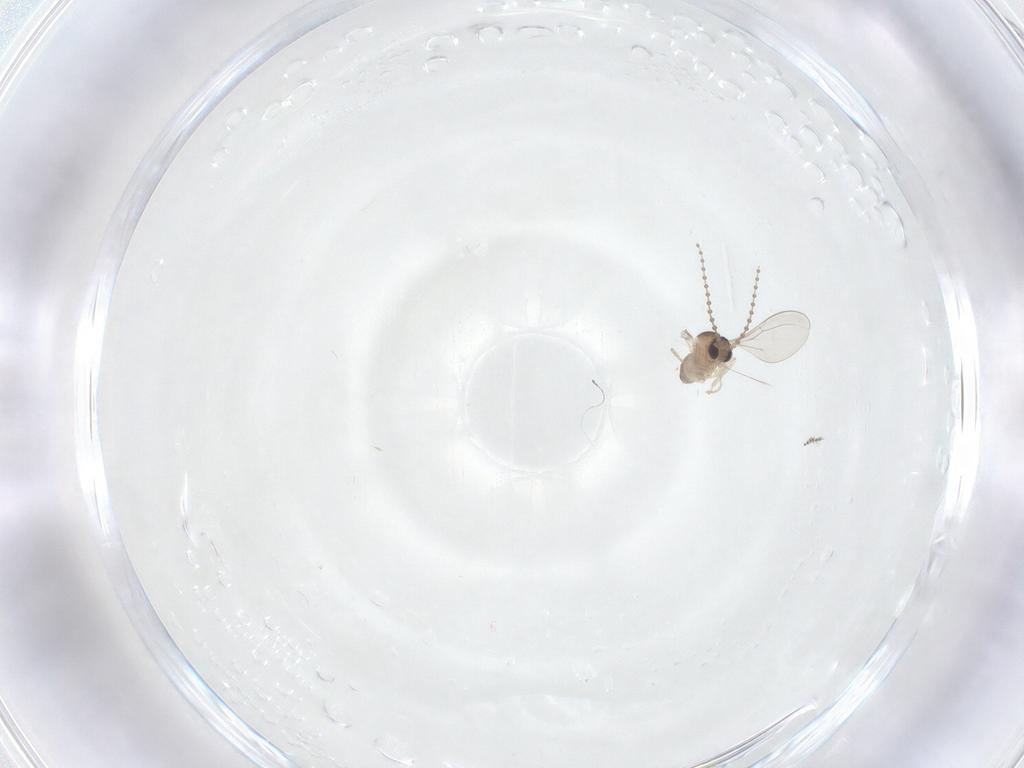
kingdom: Animalia
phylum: Arthropoda
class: Insecta
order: Diptera
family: Cecidomyiidae
